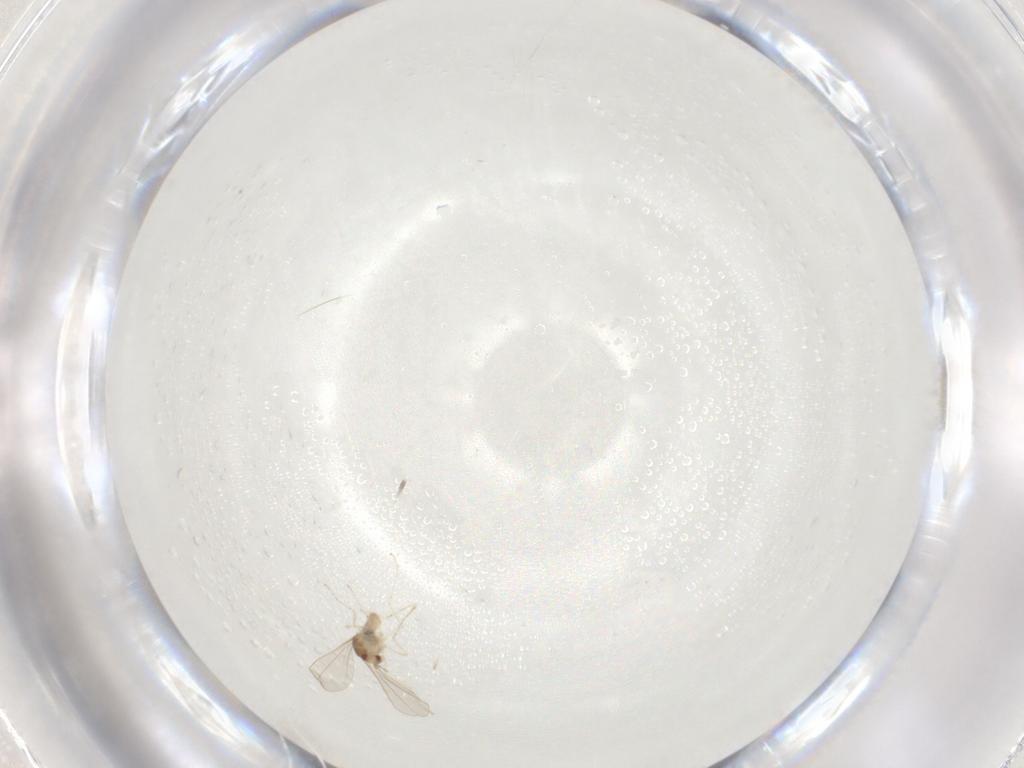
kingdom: Animalia
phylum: Arthropoda
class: Insecta
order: Diptera
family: Cecidomyiidae
